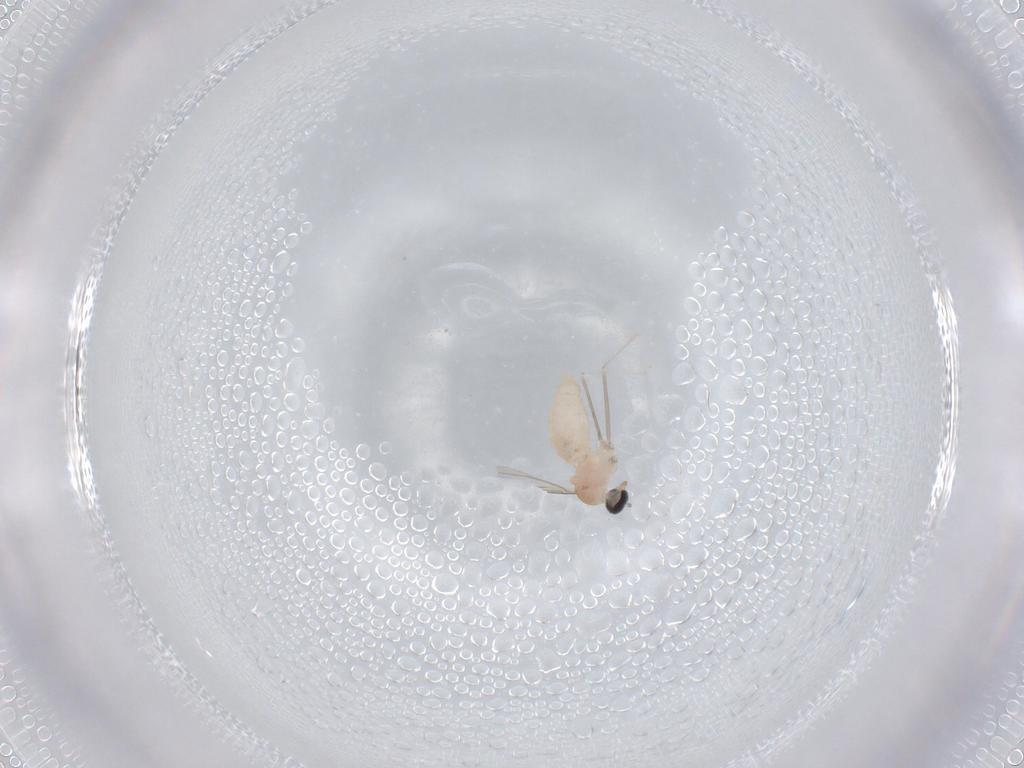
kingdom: Animalia
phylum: Arthropoda
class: Insecta
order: Diptera
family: Cecidomyiidae
